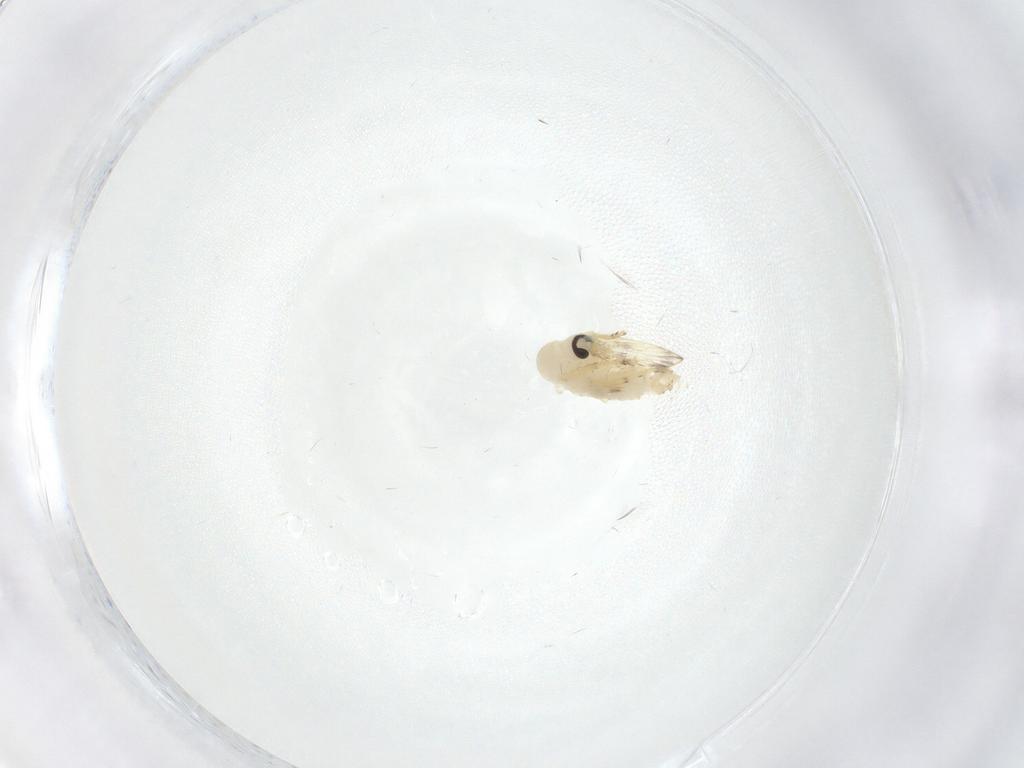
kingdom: Animalia
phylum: Arthropoda
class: Insecta
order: Diptera
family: Psychodidae
